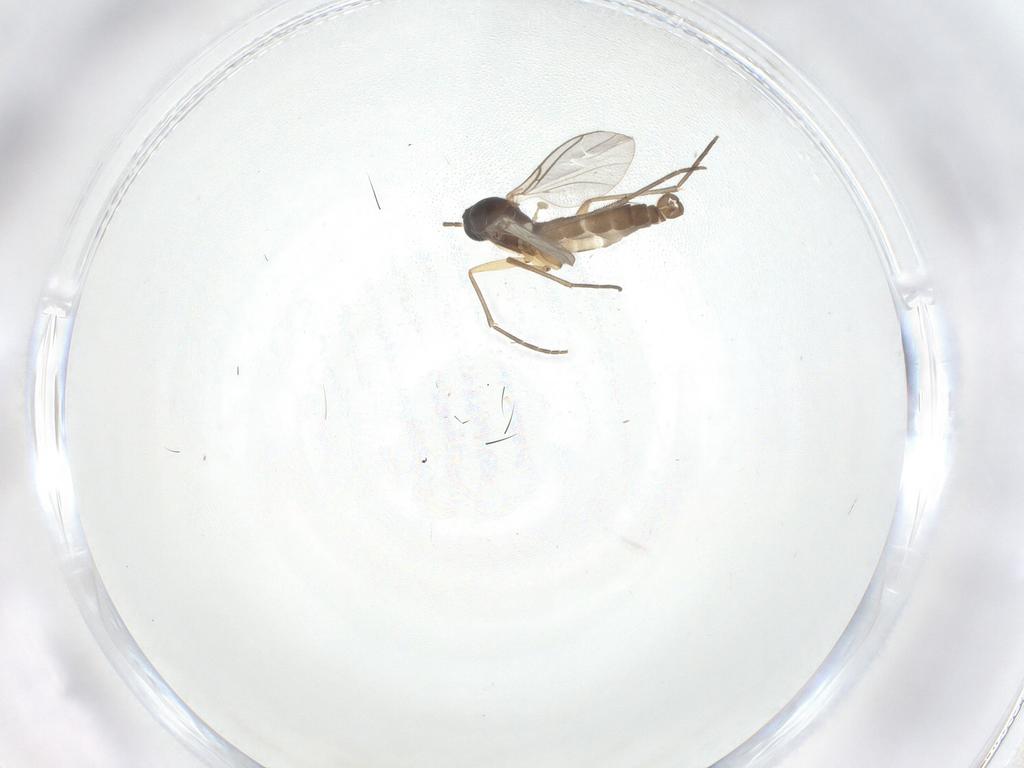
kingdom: Animalia
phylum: Arthropoda
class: Insecta
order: Diptera
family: Sciaridae
